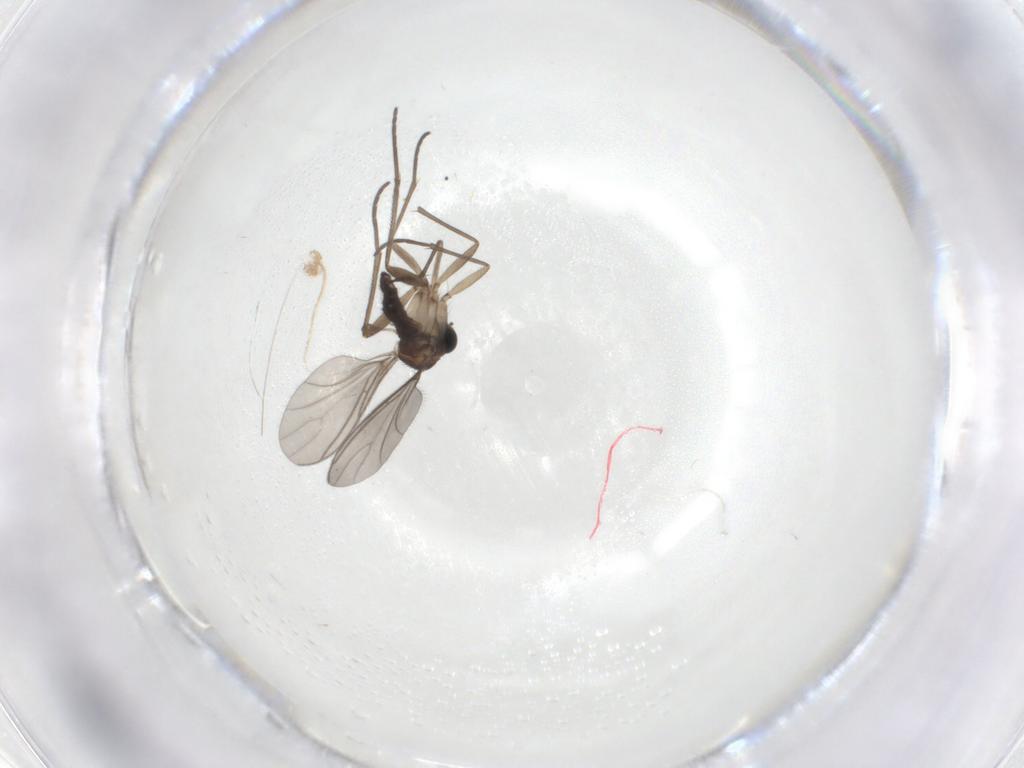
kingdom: Animalia
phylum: Arthropoda
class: Insecta
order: Diptera
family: Sciaridae
